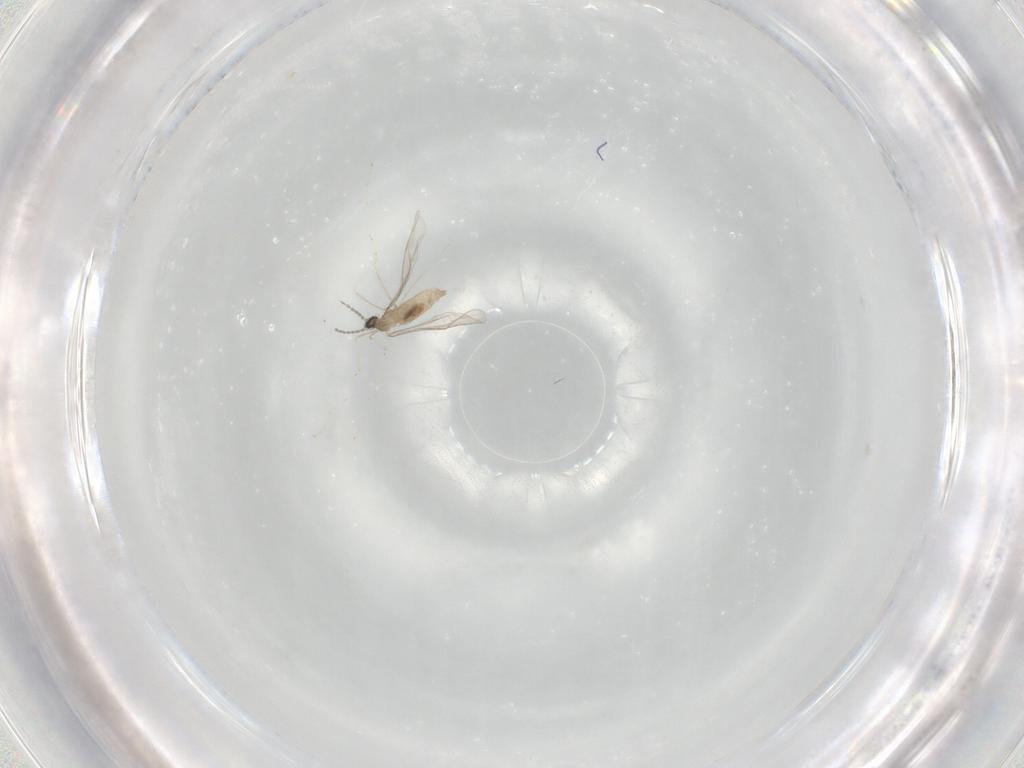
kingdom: Animalia
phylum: Arthropoda
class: Insecta
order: Diptera
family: Cecidomyiidae
